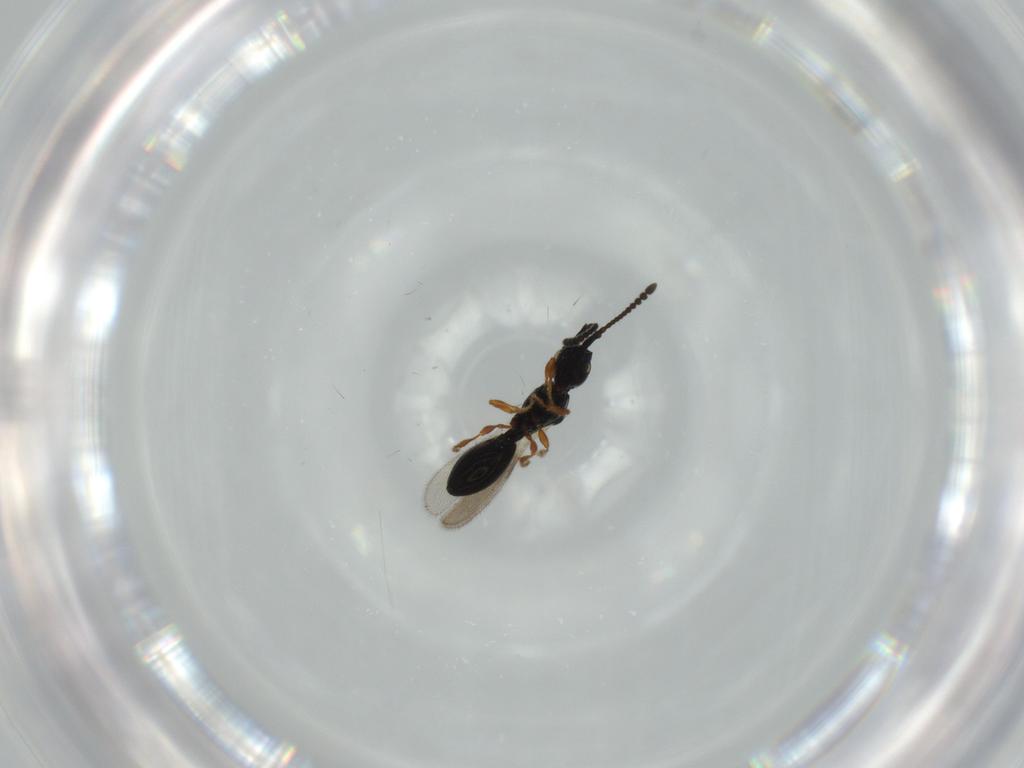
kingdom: Animalia
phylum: Arthropoda
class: Insecta
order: Hymenoptera
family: Diapriidae
